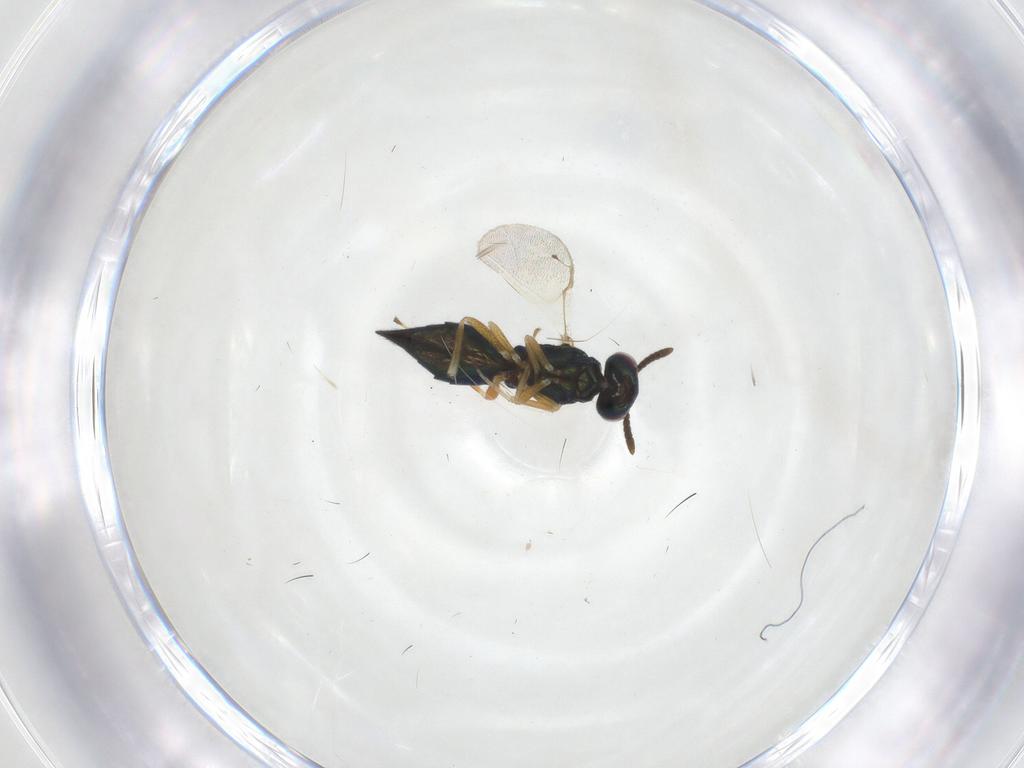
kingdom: Animalia
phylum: Arthropoda
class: Insecta
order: Hymenoptera
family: Pteromalidae
